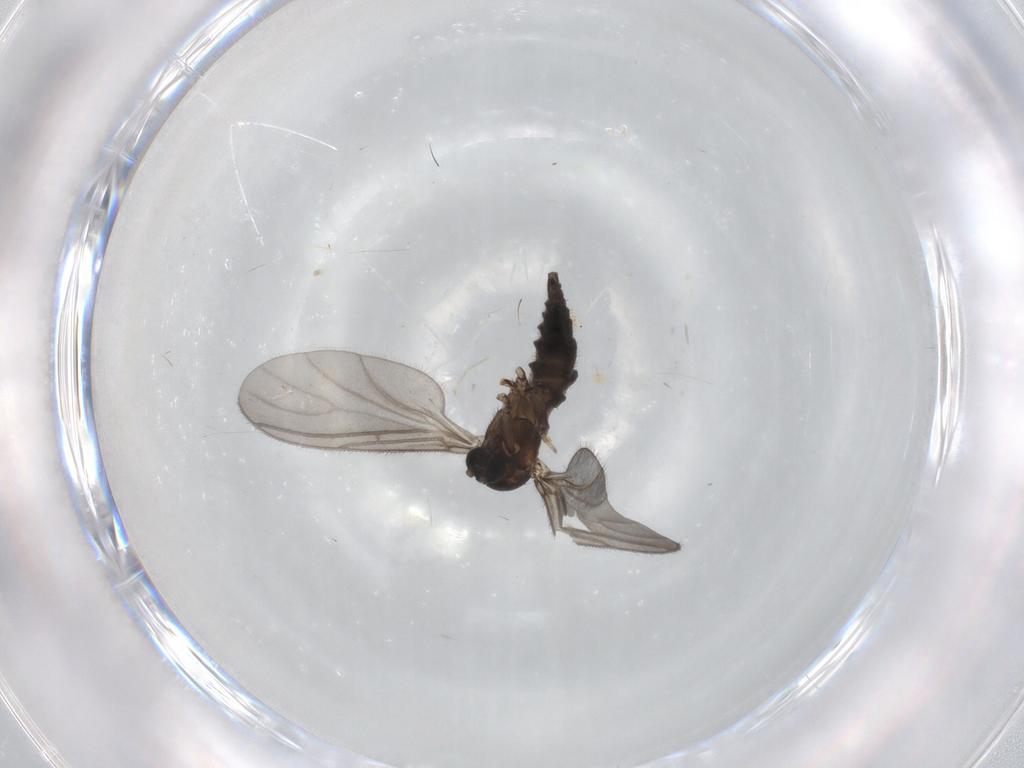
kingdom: Animalia
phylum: Arthropoda
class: Insecta
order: Diptera
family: Sciaridae
